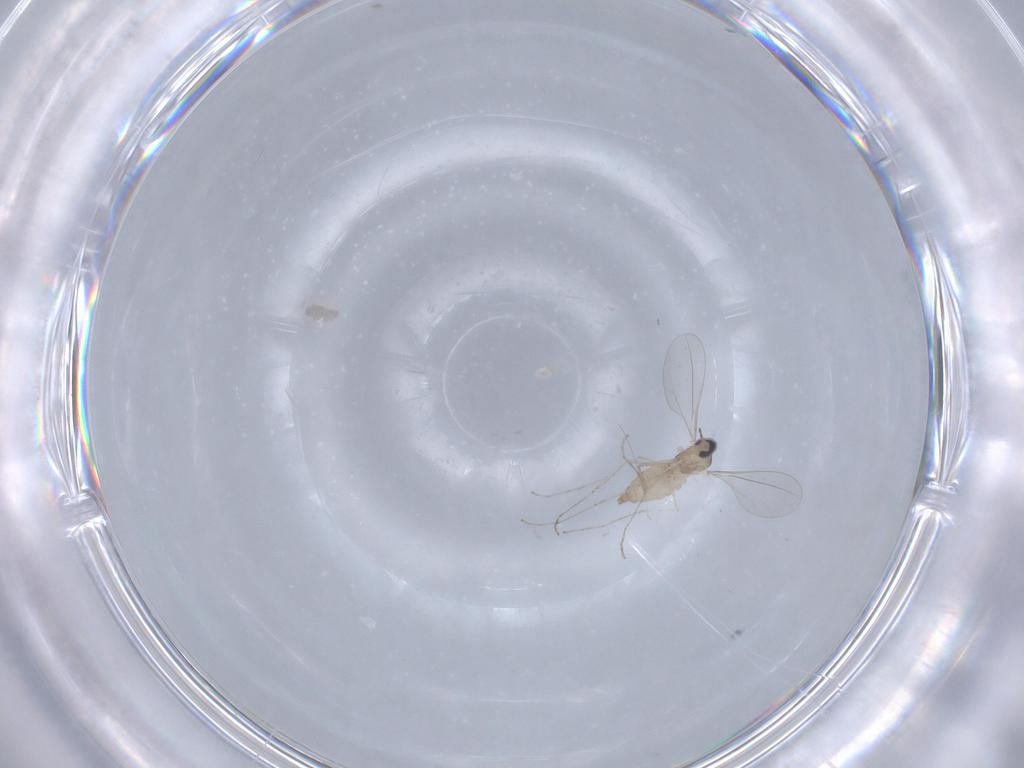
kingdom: Animalia
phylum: Arthropoda
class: Insecta
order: Diptera
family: Cecidomyiidae
